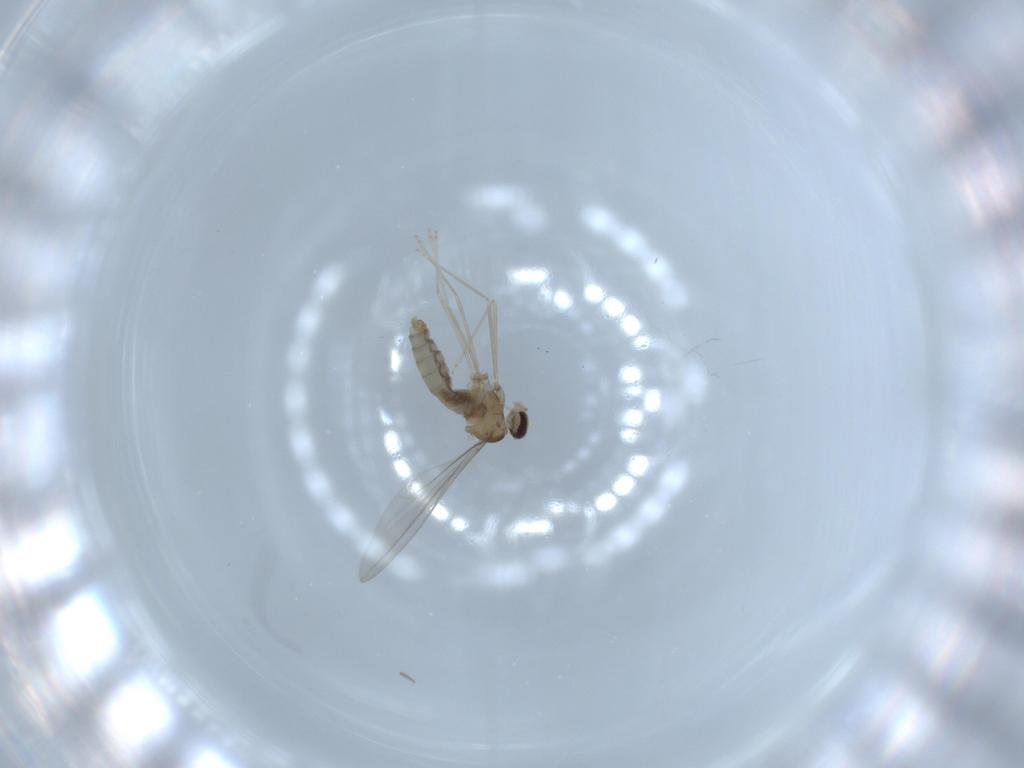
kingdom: Animalia
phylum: Arthropoda
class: Insecta
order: Diptera
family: Cecidomyiidae
